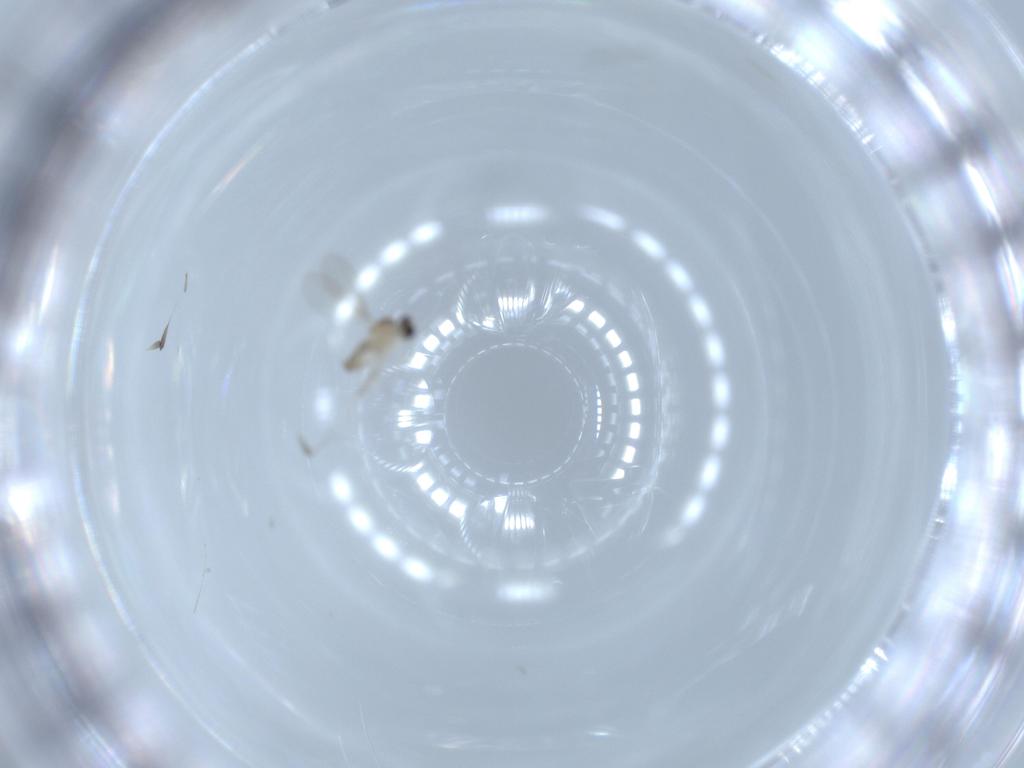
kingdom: Animalia
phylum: Arthropoda
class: Insecta
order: Diptera
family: Cecidomyiidae
